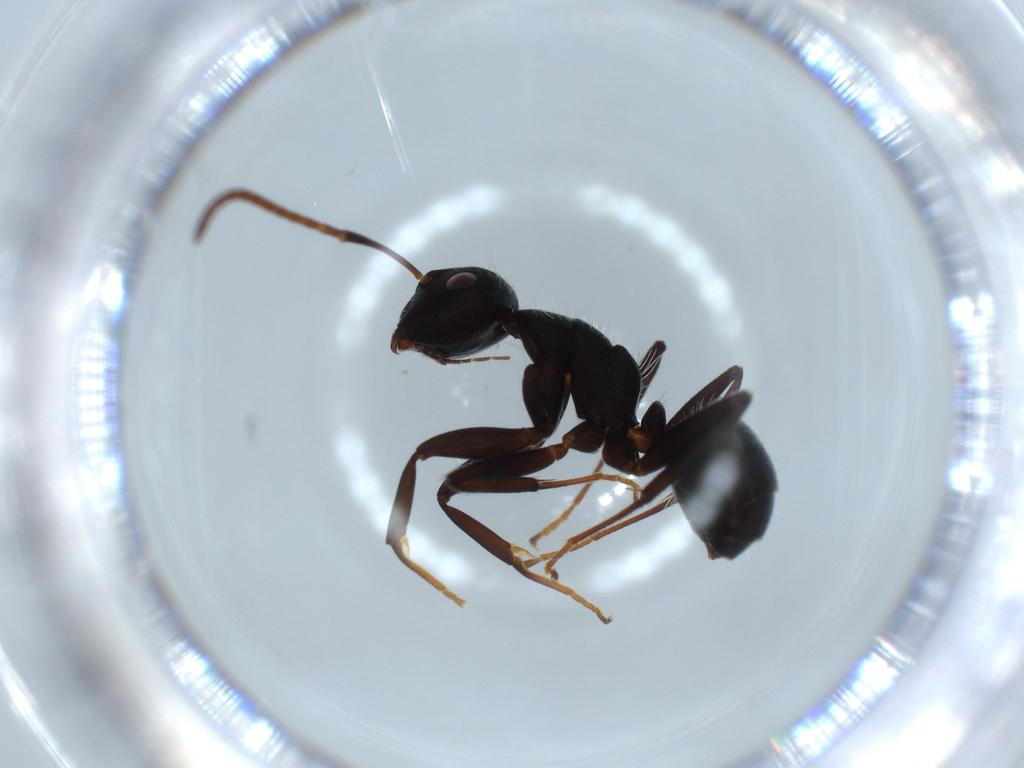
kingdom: Animalia
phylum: Arthropoda
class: Insecta
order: Hymenoptera
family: Formicidae
